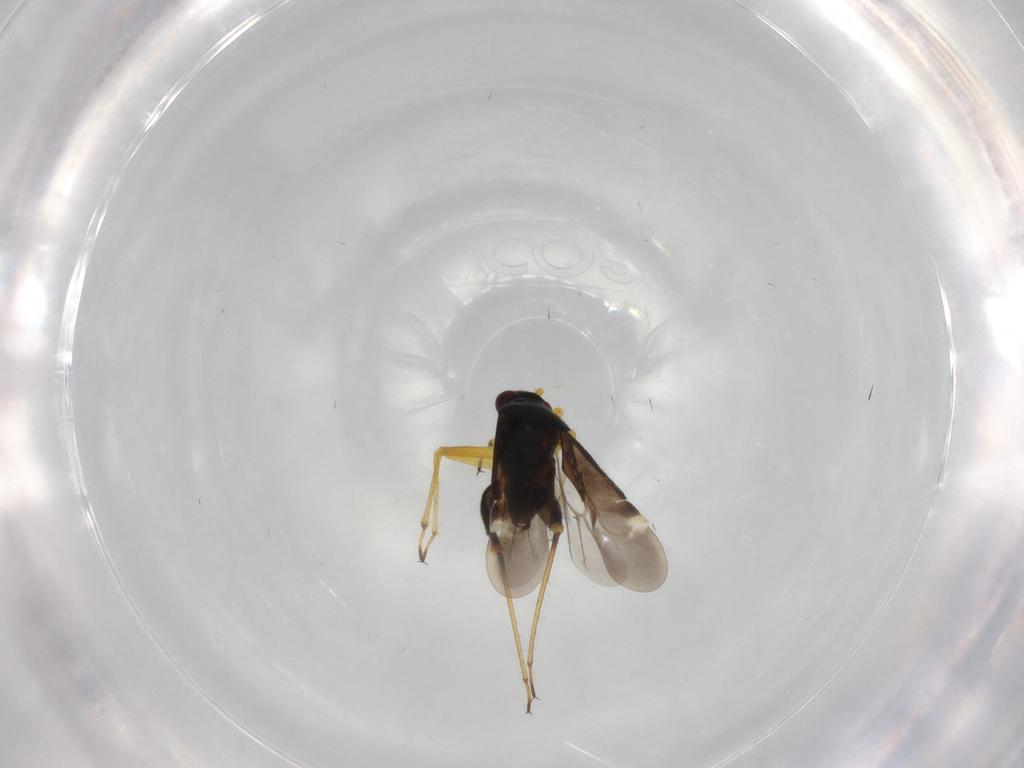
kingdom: Animalia
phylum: Arthropoda
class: Insecta
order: Hemiptera
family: Miridae
